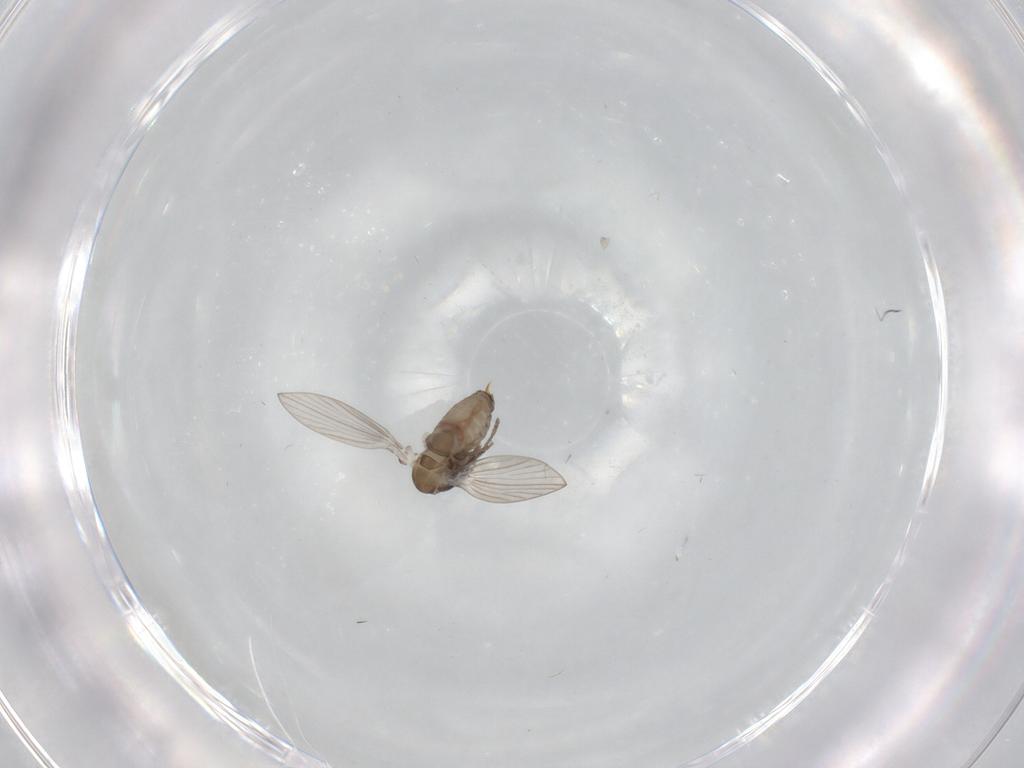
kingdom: Animalia
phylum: Arthropoda
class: Insecta
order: Diptera
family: Psychodidae
